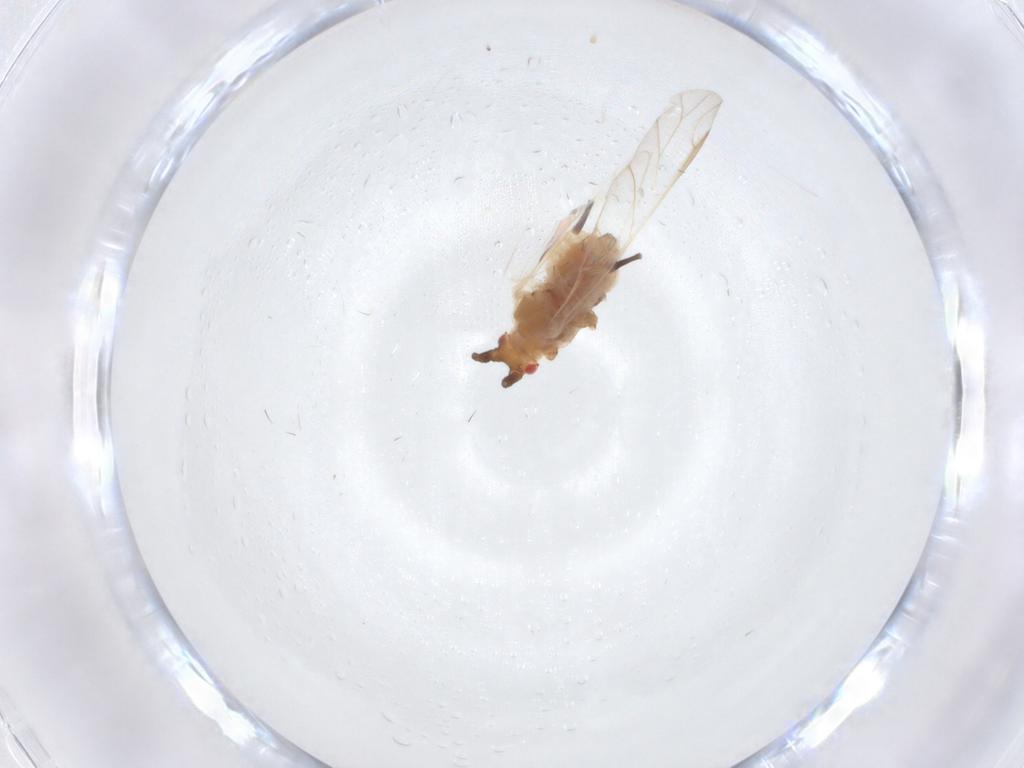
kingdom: Animalia
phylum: Arthropoda
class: Insecta
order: Hemiptera
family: Aphididae
